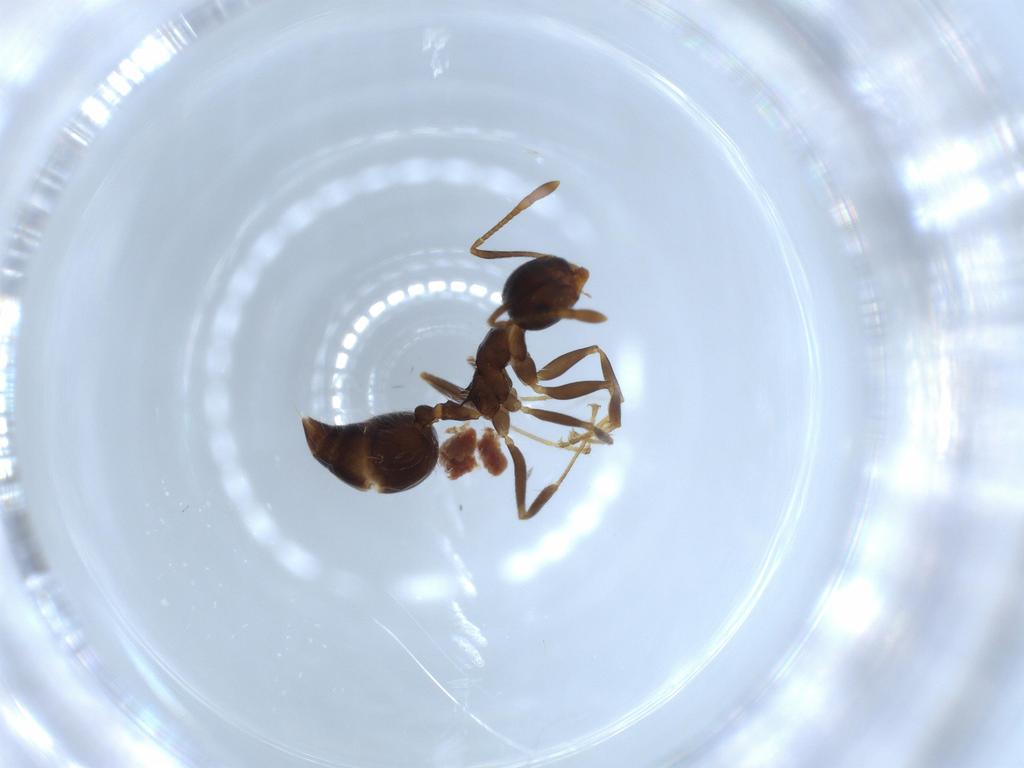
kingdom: Animalia
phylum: Arthropoda
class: Insecta
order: Hymenoptera
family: Formicidae
